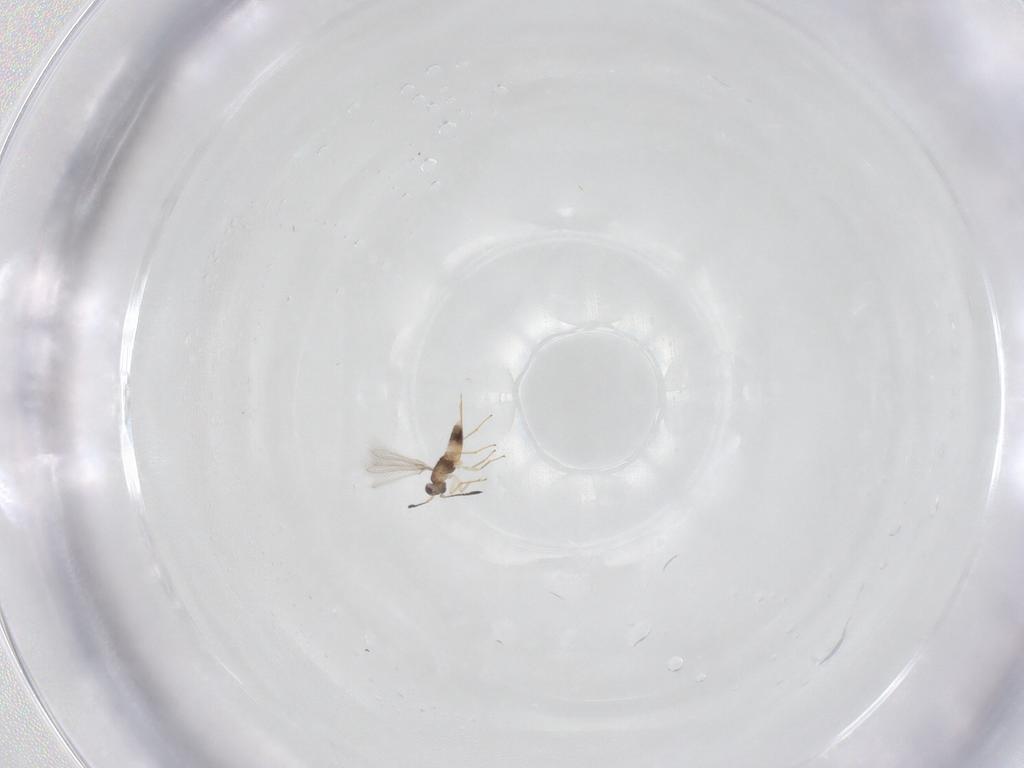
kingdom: Animalia
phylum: Arthropoda
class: Insecta
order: Hymenoptera
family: Mymaridae
